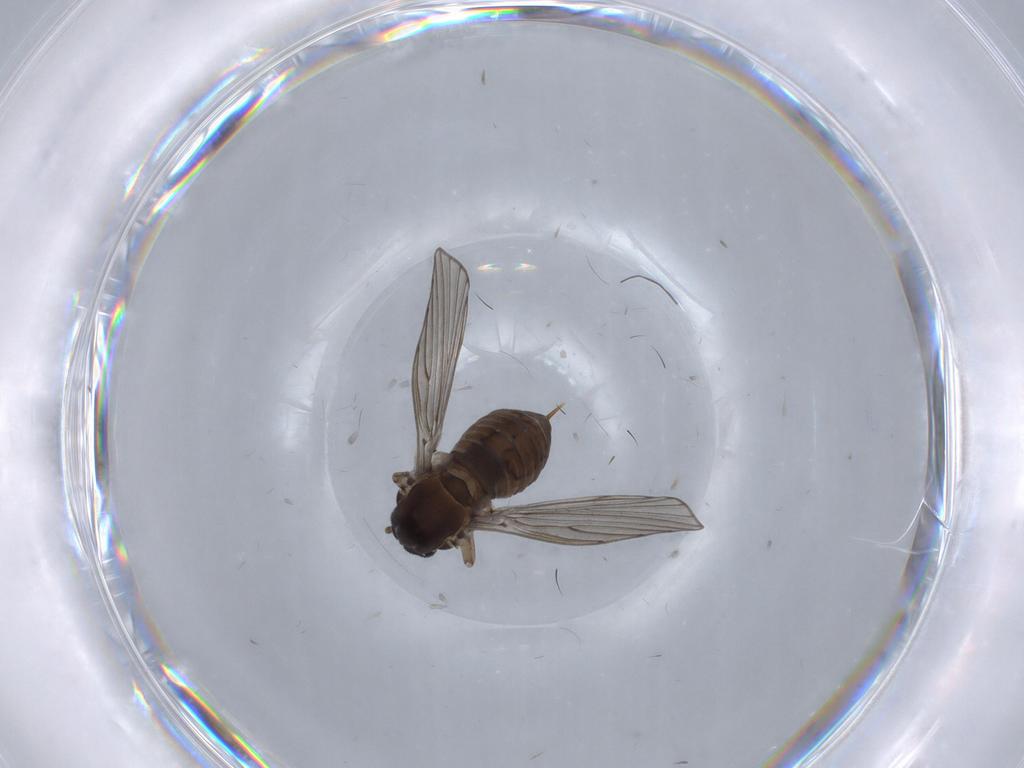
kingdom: Animalia
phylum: Arthropoda
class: Insecta
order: Diptera
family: Psychodidae
